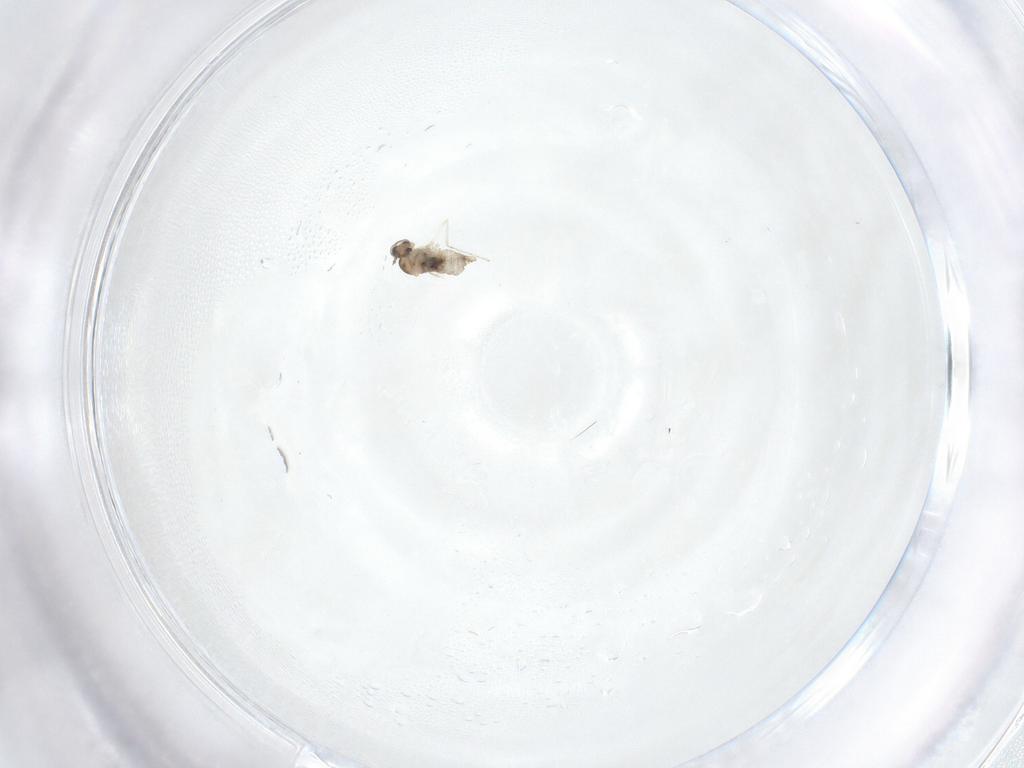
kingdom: Animalia
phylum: Arthropoda
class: Insecta
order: Diptera
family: Cecidomyiidae
